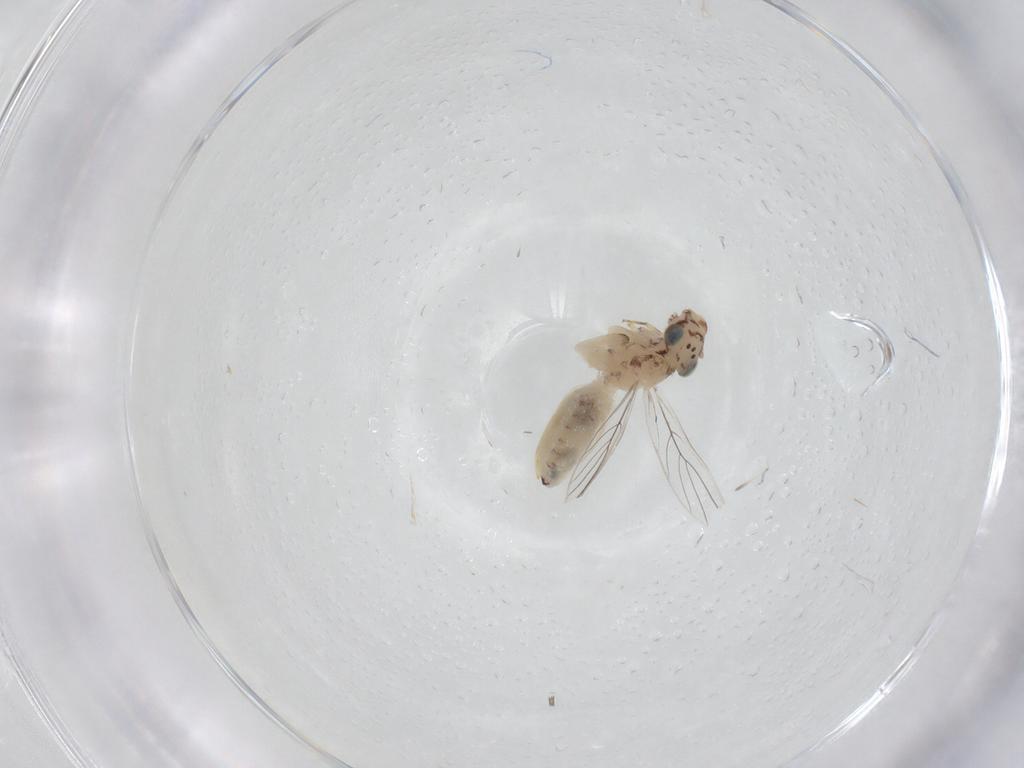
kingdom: Animalia
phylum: Arthropoda
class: Insecta
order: Psocodea
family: Lepidopsocidae
